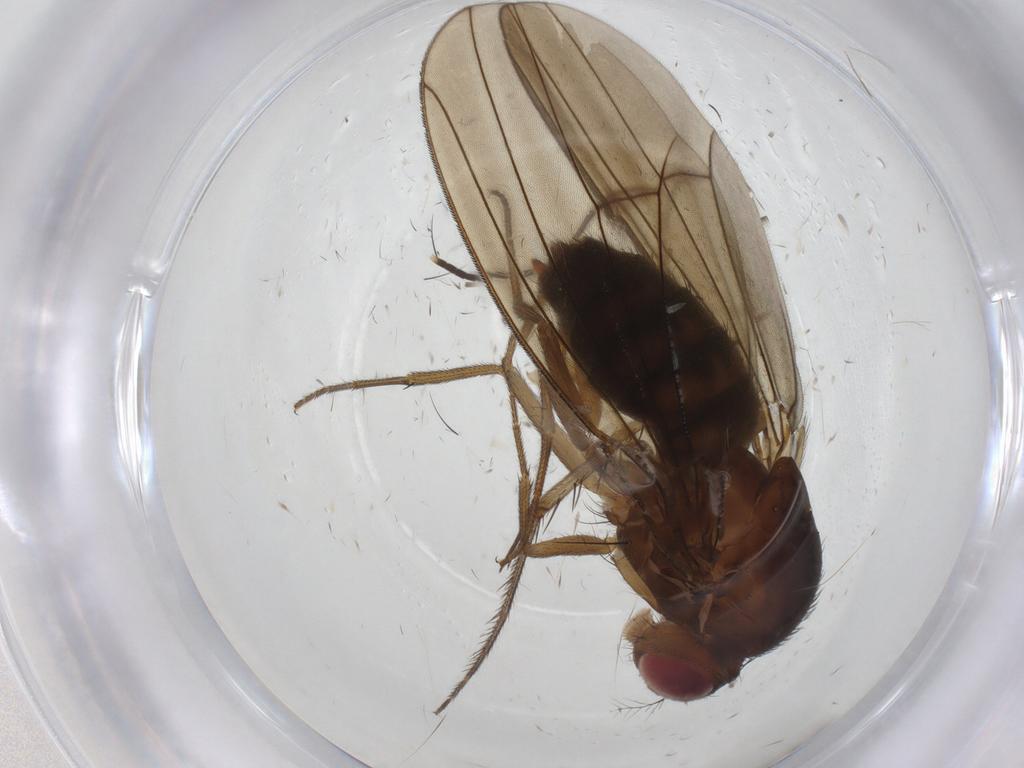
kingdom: Animalia
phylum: Arthropoda
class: Insecta
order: Diptera
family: Drosophilidae
